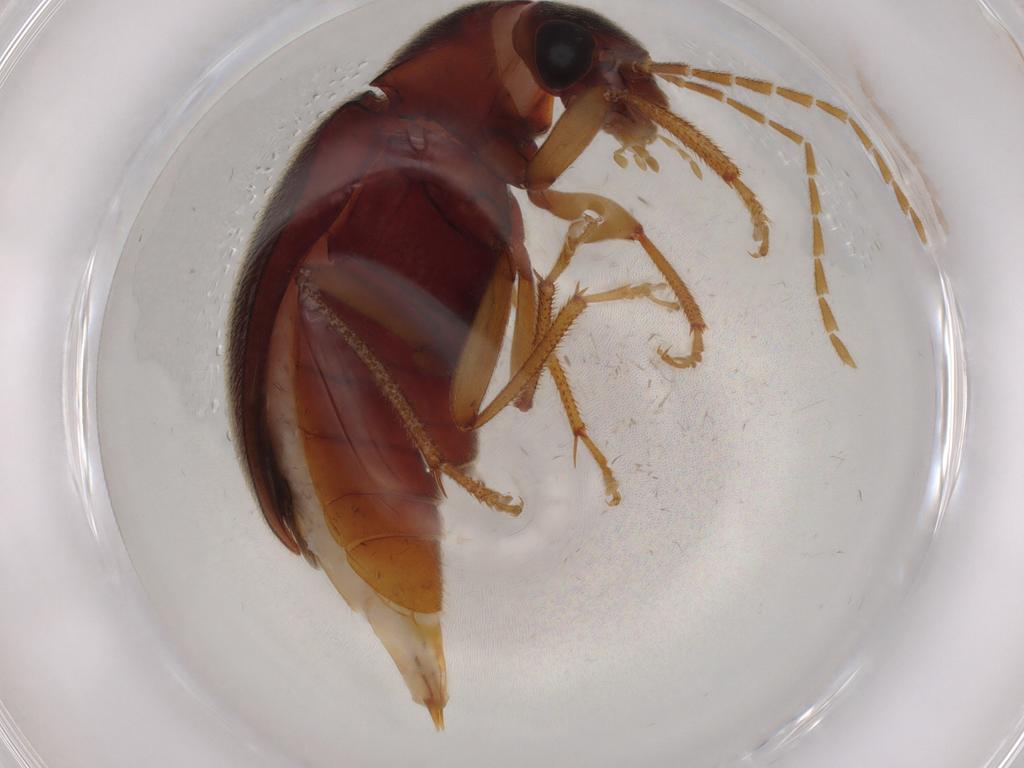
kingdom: Animalia
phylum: Arthropoda
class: Insecta
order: Coleoptera
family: Ptilodactylidae
